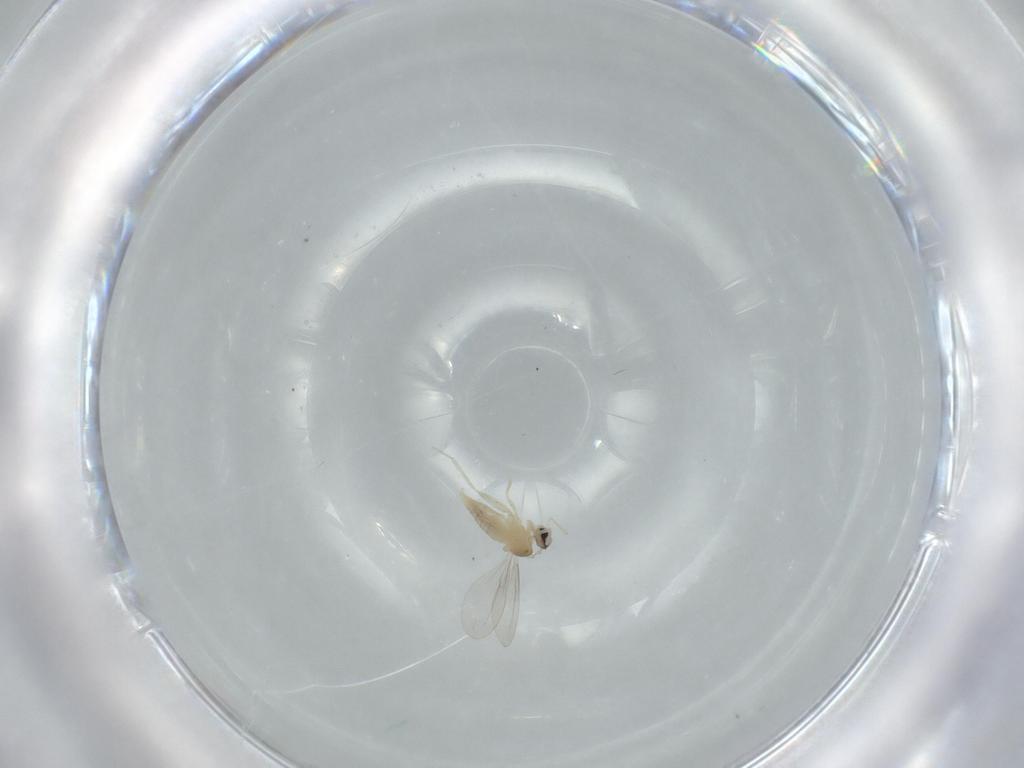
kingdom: Animalia
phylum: Arthropoda
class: Insecta
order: Diptera
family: Cecidomyiidae
